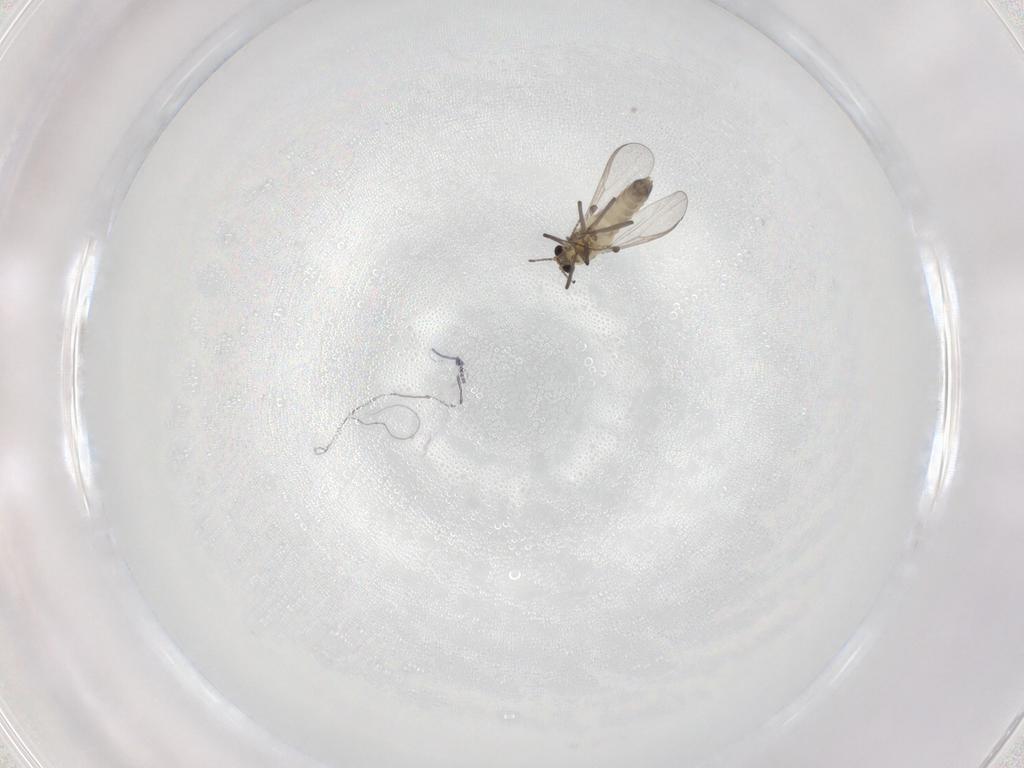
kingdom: Animalia
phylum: Arthropoda
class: Insecta
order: Diptera
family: Chironomidae
